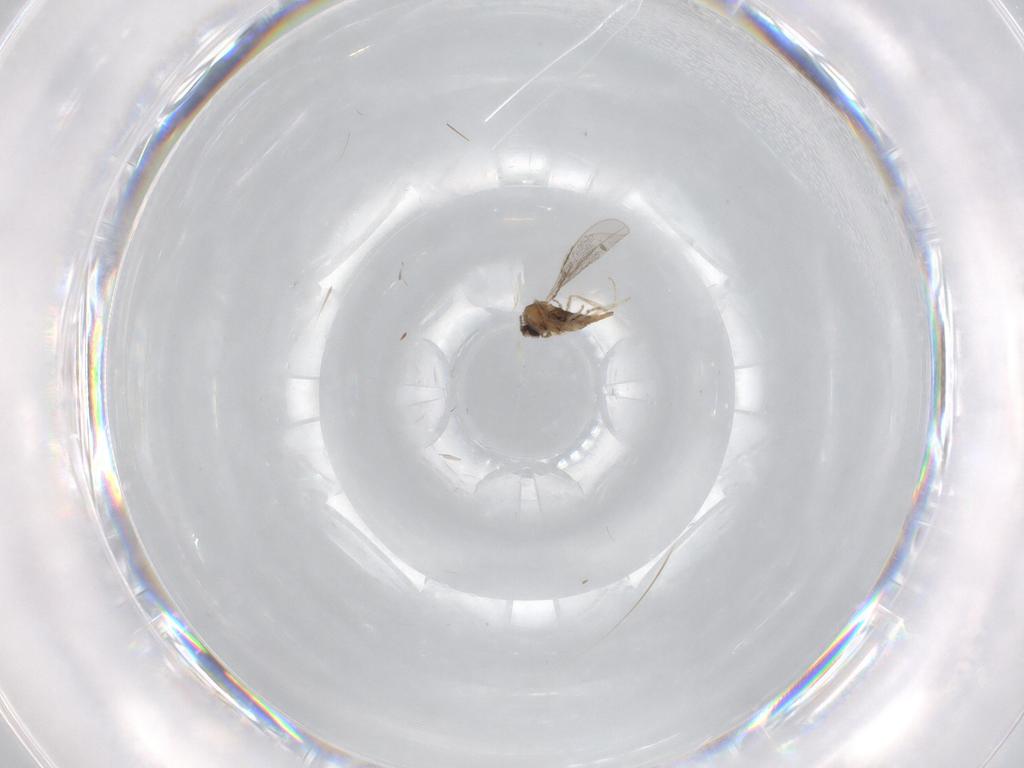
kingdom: Animalia
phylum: Arthropoda
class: Insecta
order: Diptera
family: Cecidomyiidae
